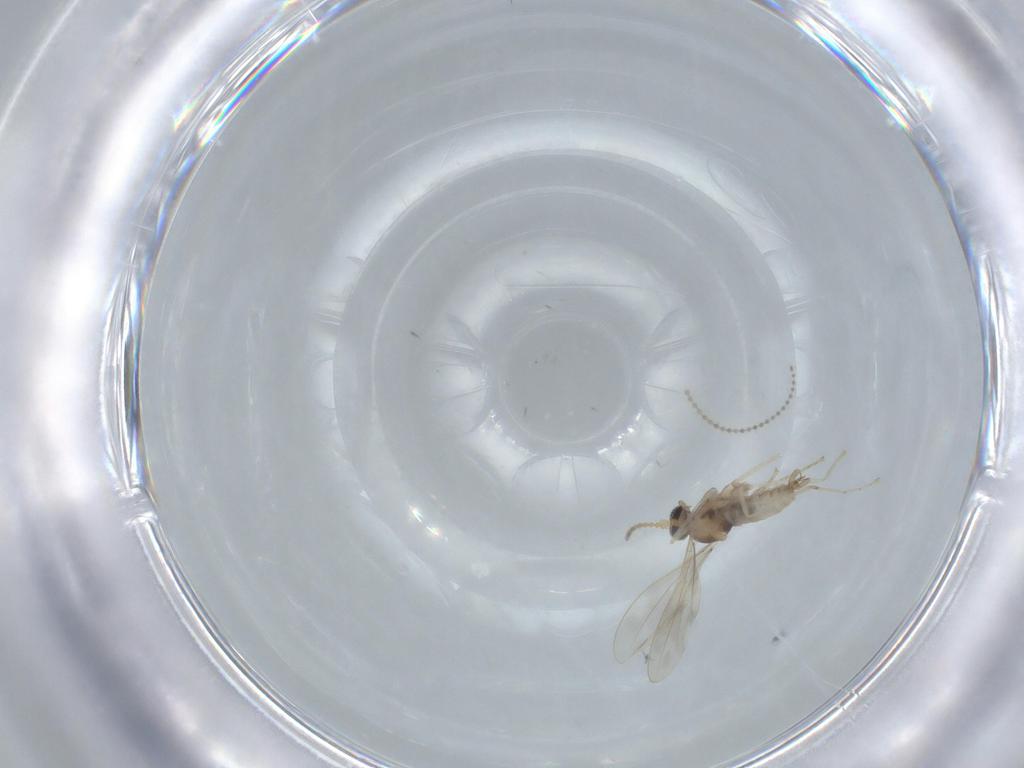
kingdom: Animalia
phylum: Arthropoda
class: Insecta
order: Diptera
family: Cecidomyiidae
